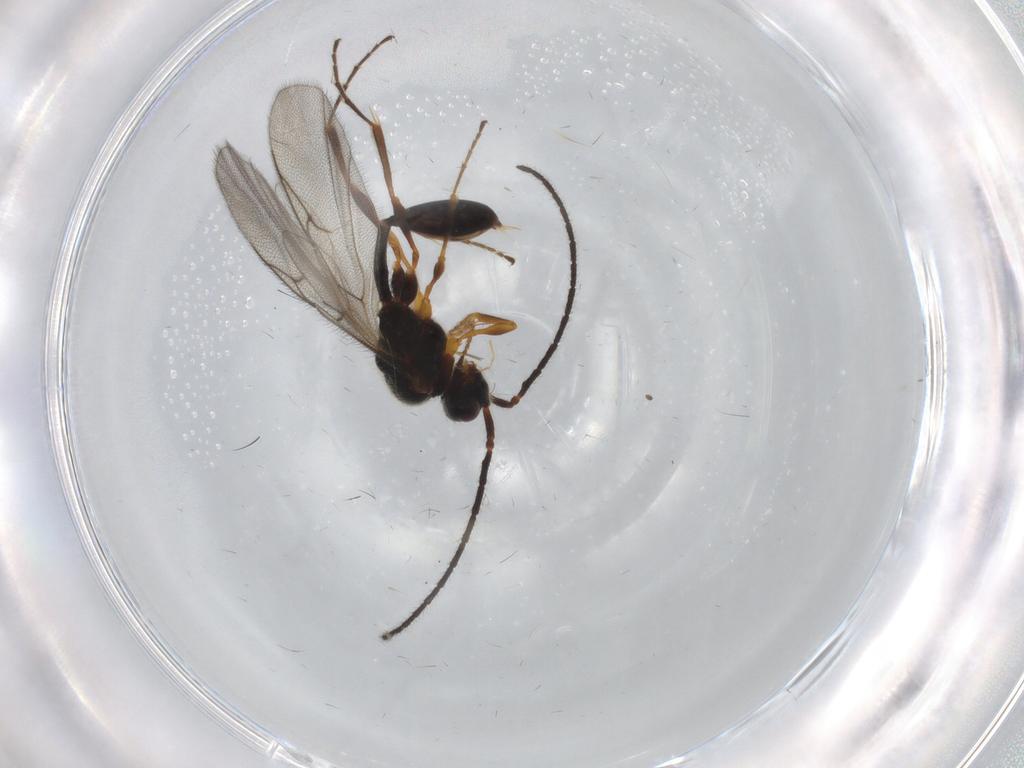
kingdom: Animalia
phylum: Arthropoda
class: Insecta
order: Hymenoptera
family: Diapriidae
